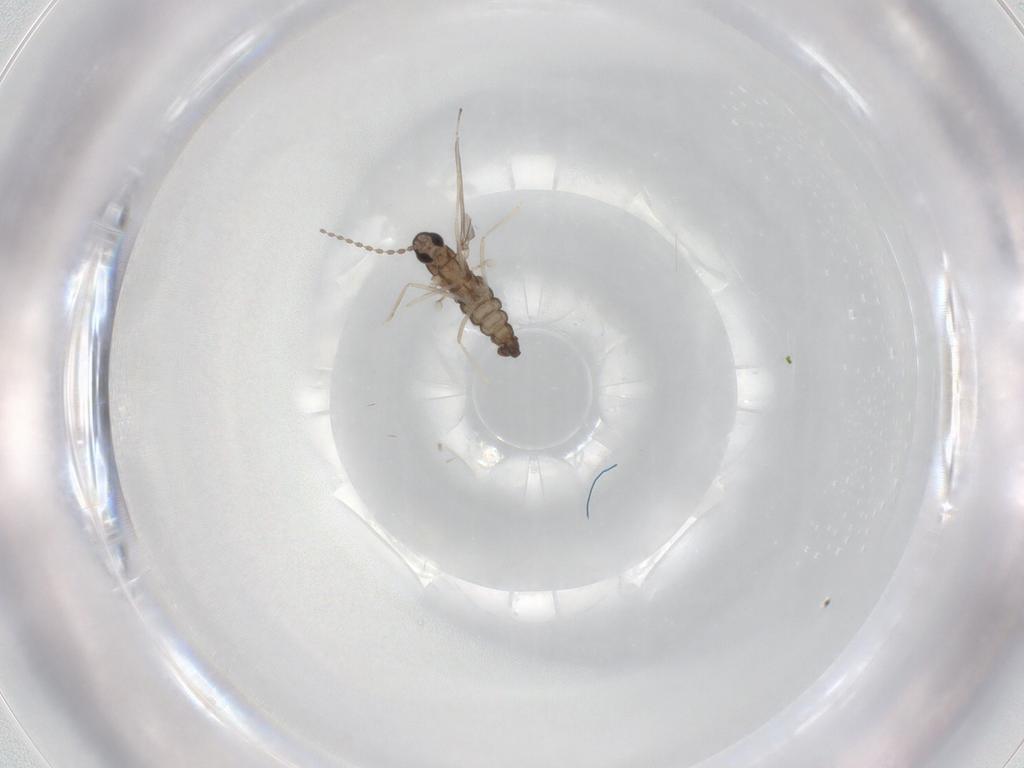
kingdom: Animalia
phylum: Arthropoda
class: Insecta
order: Diptera
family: Cecidomyiidae
